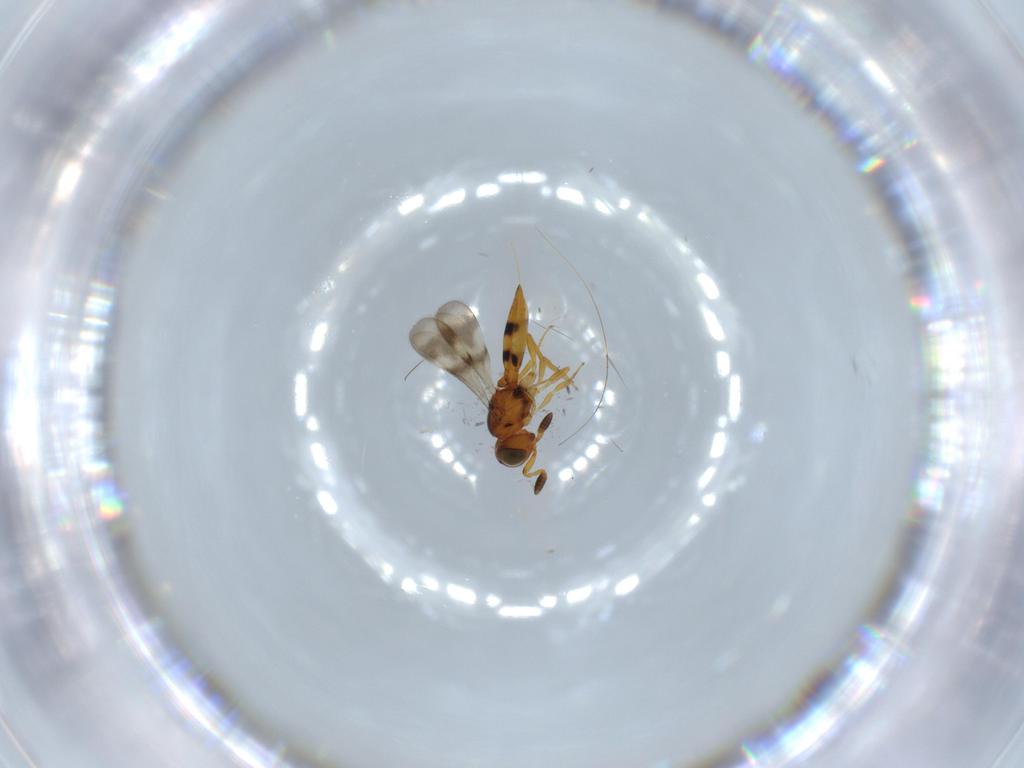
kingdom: Animalia
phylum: Arthropoda
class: Insecta
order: Hymenoptera
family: Scelionidae
